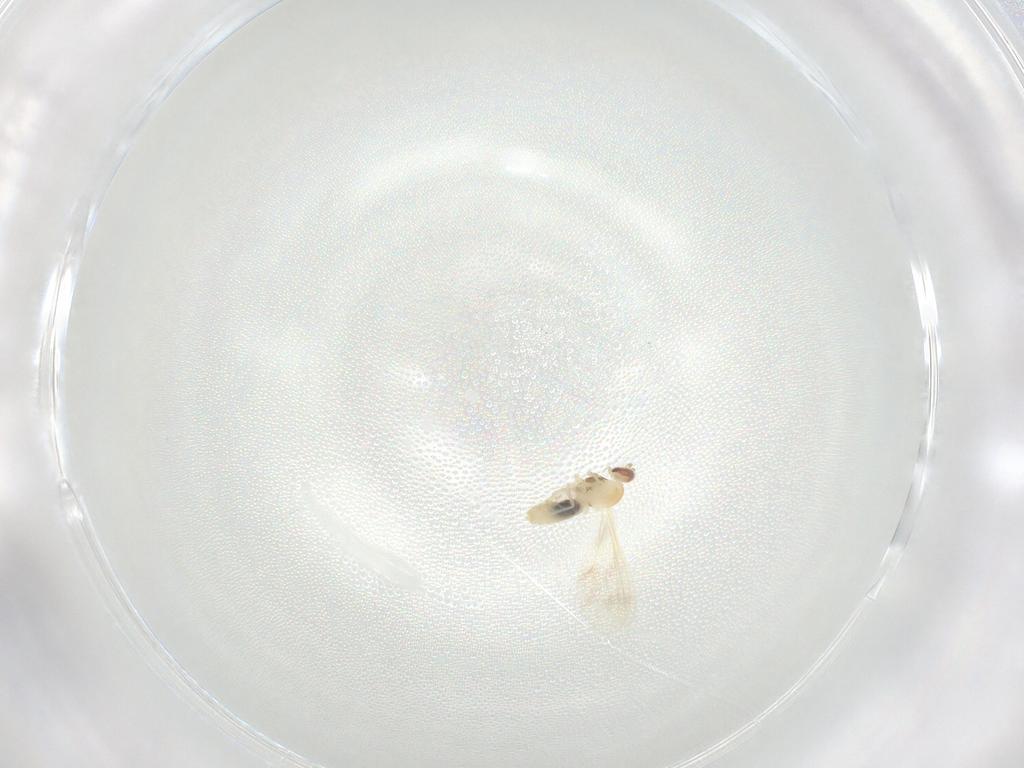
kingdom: Animalia
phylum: Arthropoda
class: Insecta
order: Diptera
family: Cecidomyiidae
